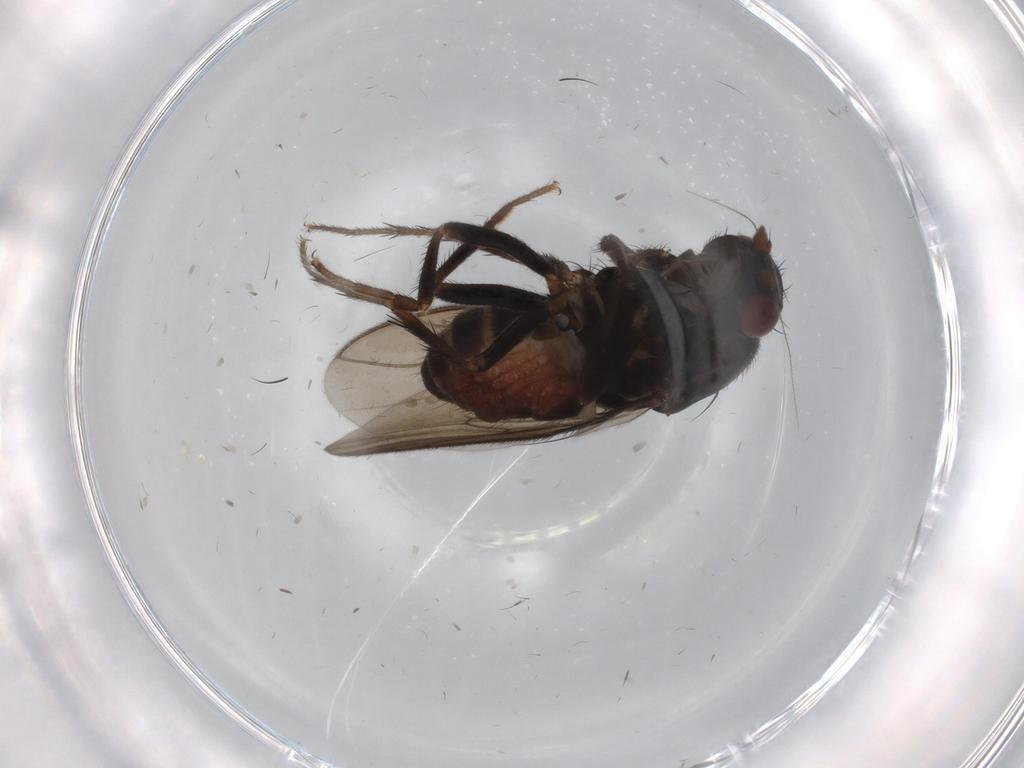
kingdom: Animalia
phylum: Arthropoda
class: Insecta
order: Diptera
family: Sphaeroceridae
